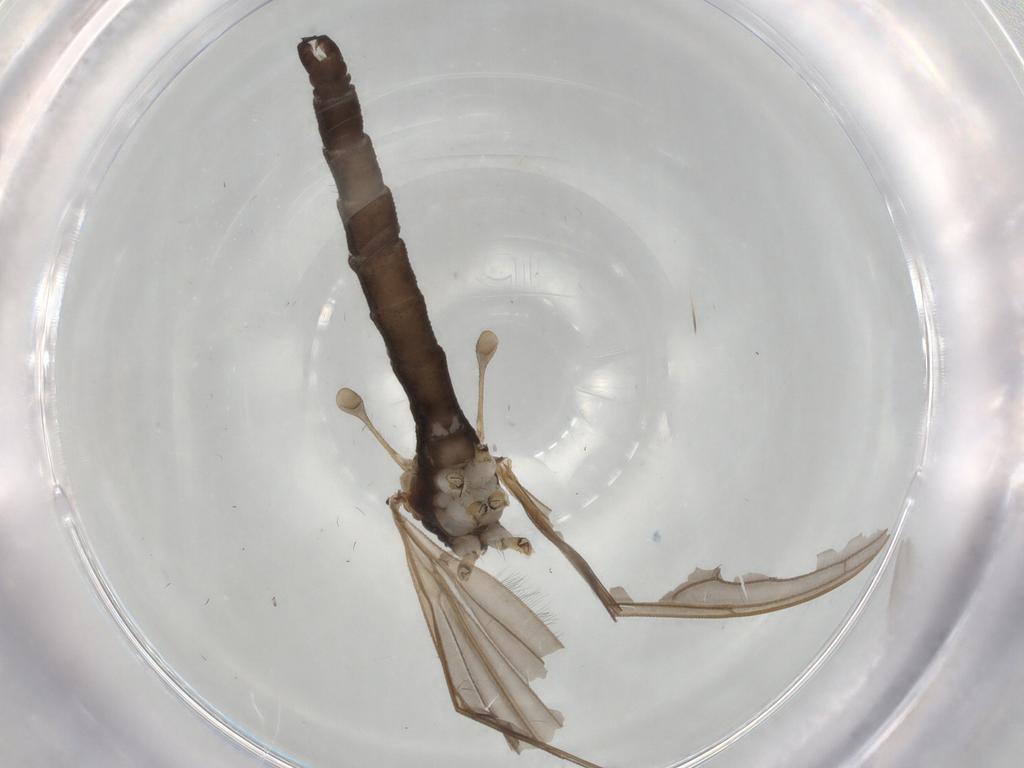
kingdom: Animalia
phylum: Arthropoda
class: Insecta
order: Diptera
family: Limoniidae
